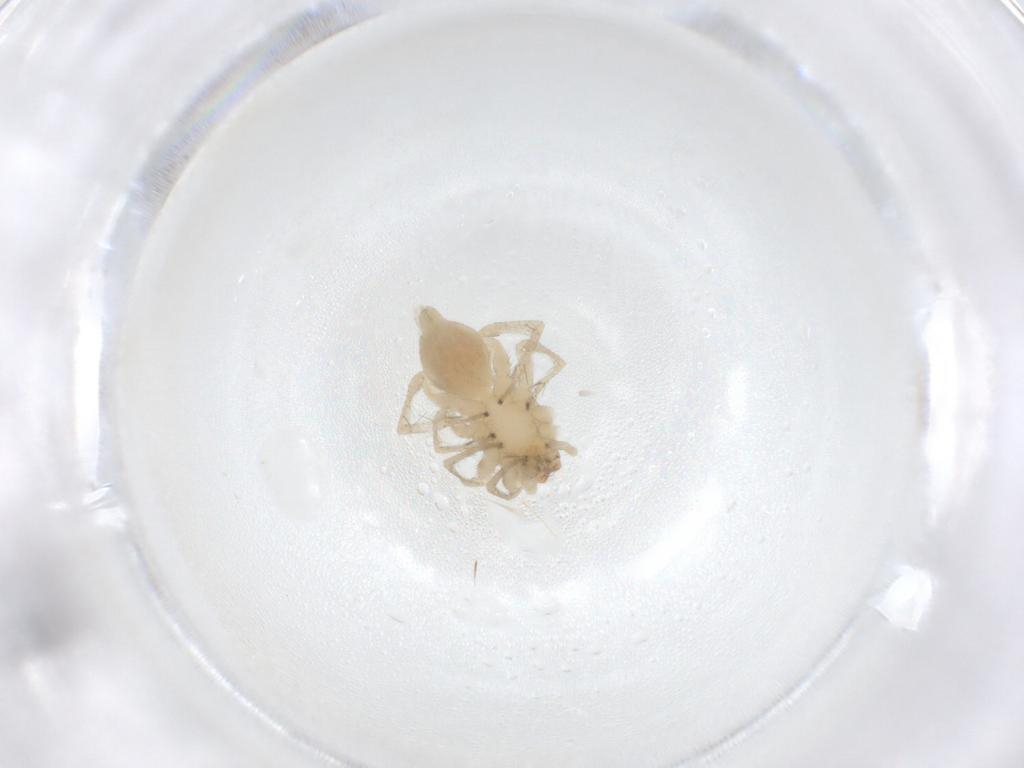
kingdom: Animalia
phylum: Arthropoda
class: Arachnida
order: Araneae
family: Clubionidae
